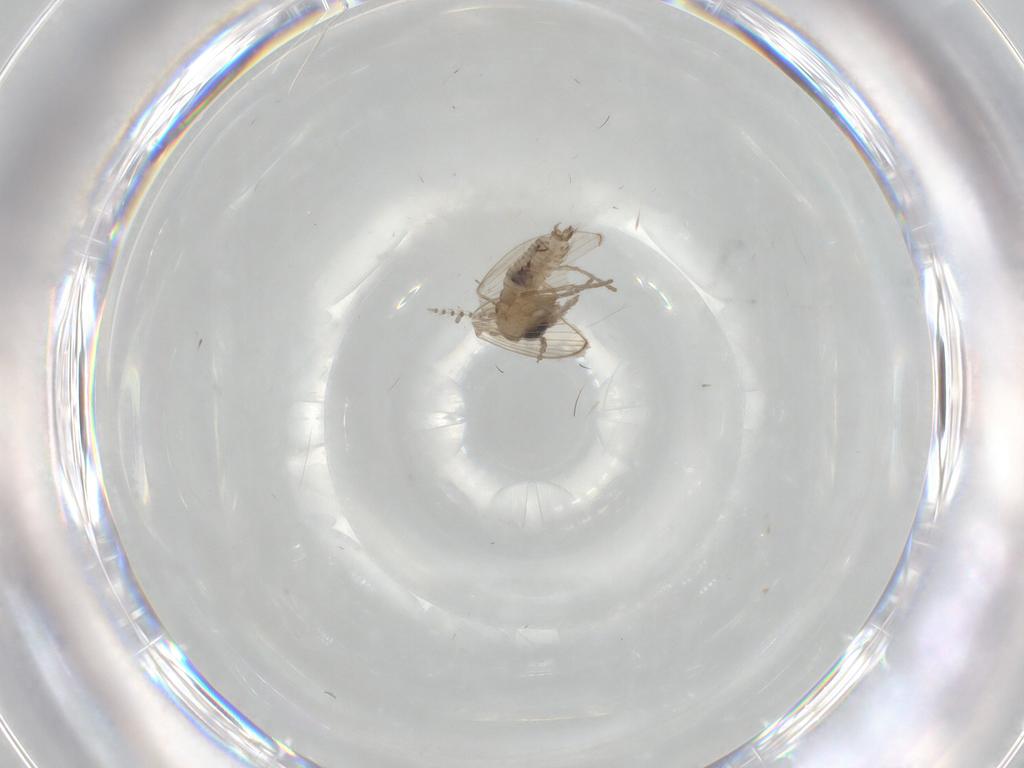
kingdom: Animalia
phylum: Arthropoda
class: Insecta
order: Diptera
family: Psychodidae
